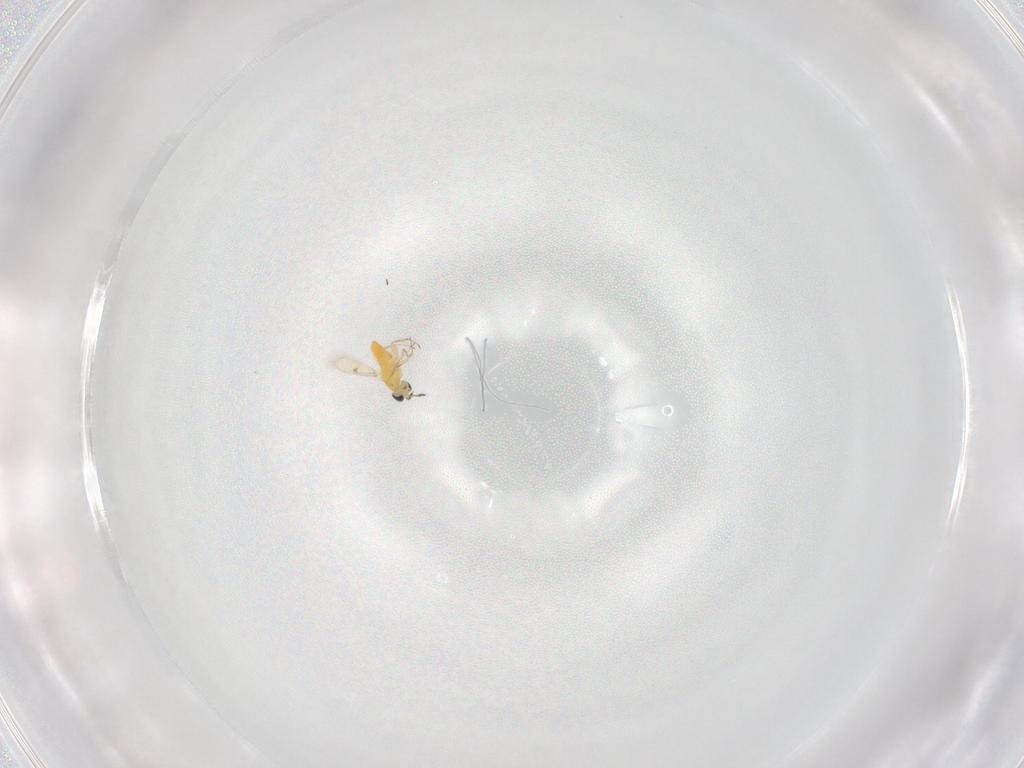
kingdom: Animalia
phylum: Arthropoda
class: Insecta
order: Hymenoptera
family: Trichogrammatidae
